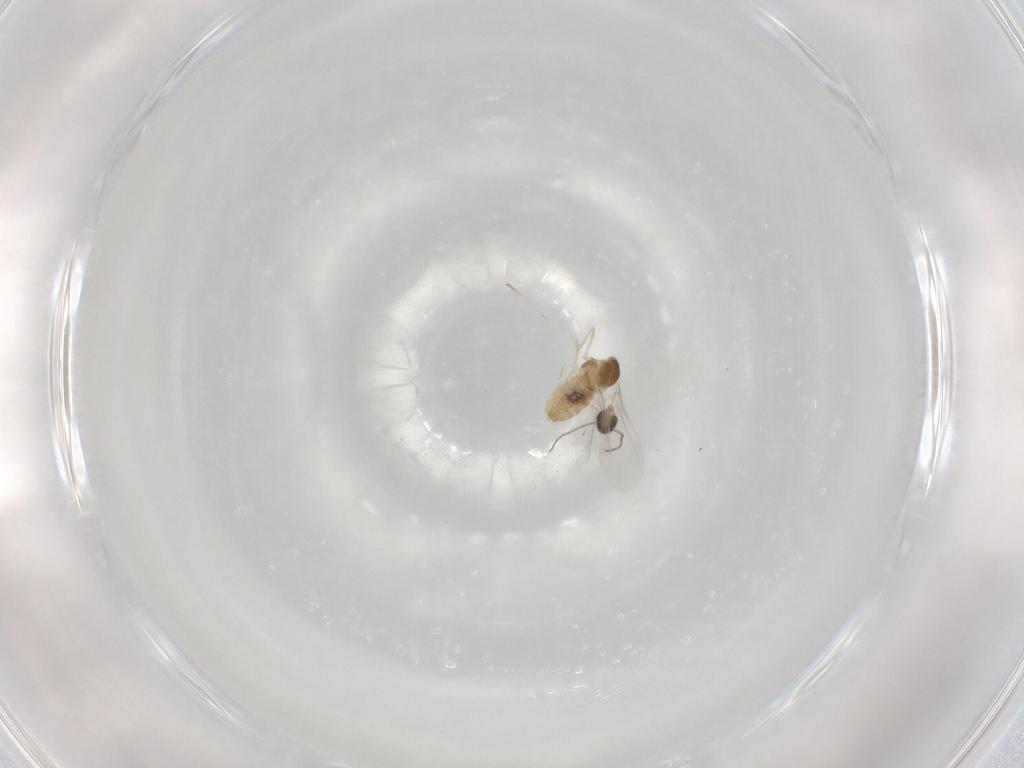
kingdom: Animalia
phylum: Arthropoda
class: Insecta
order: Diptera
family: Cecidomyiidae
